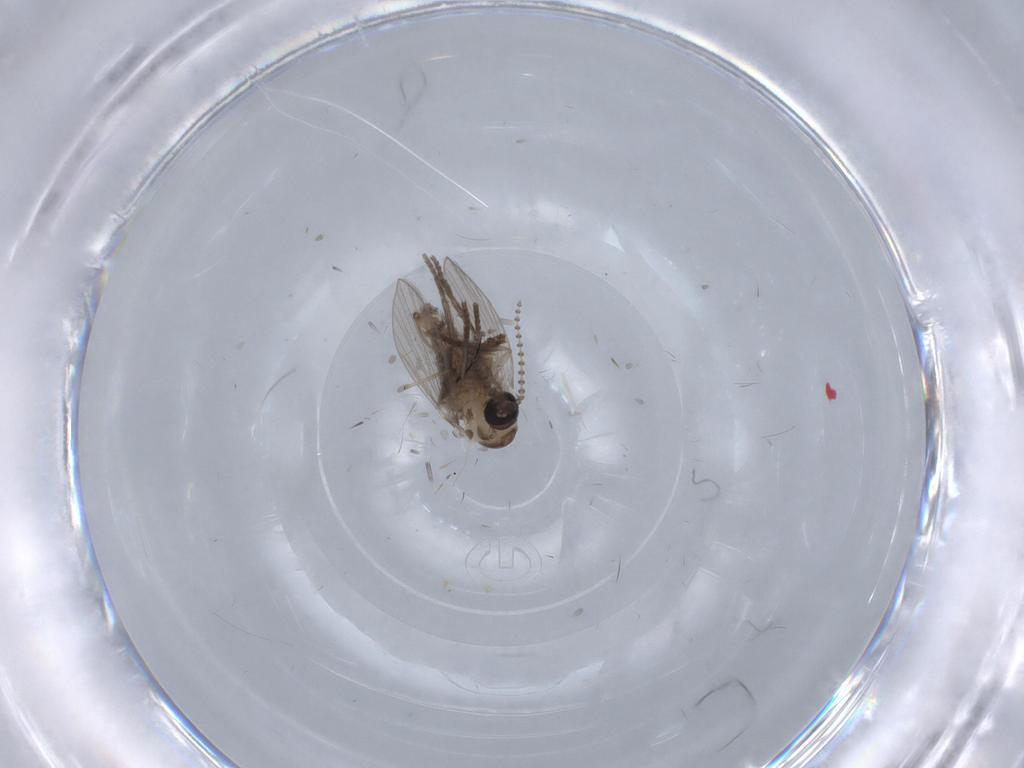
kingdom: Animalia
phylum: Arthropoda
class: Insecta
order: Diptera
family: Psychodidae
